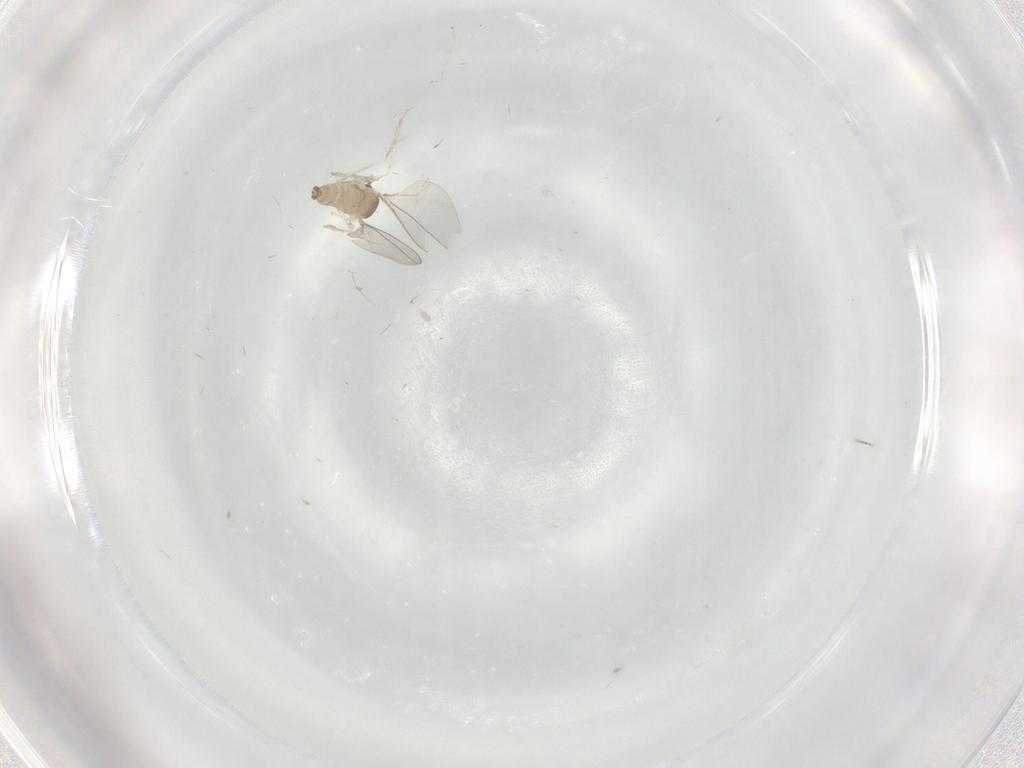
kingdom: Animalia
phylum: Arthropoda
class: Insecta
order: Diptera
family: Cecidomyiidae
